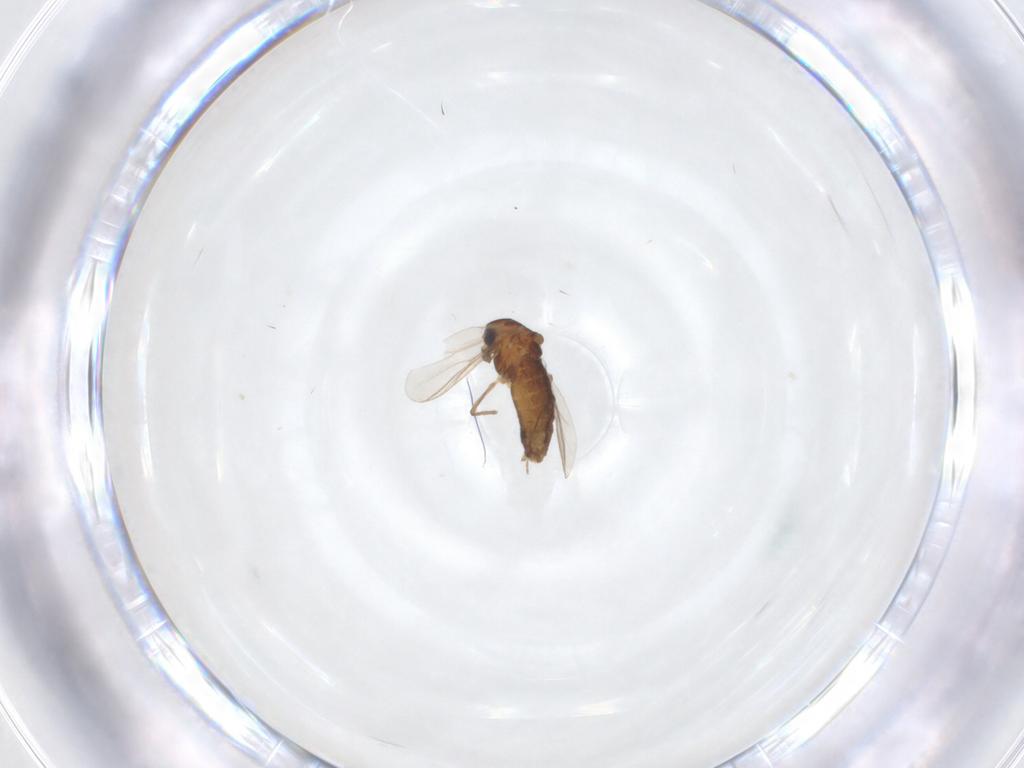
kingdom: Animalia
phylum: Arthropoda
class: Insecta
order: Diptera
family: Chironomidae
